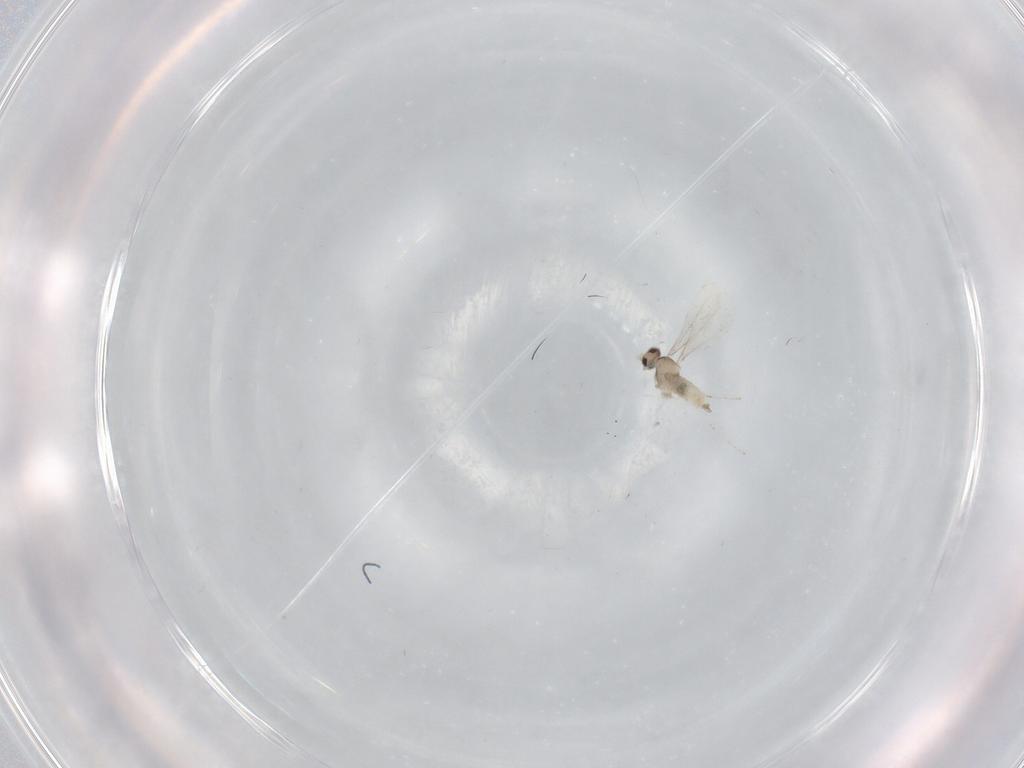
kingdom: Animalia
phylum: Arthropoda
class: Insecta
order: Diptera
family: Cecidomyiidae
